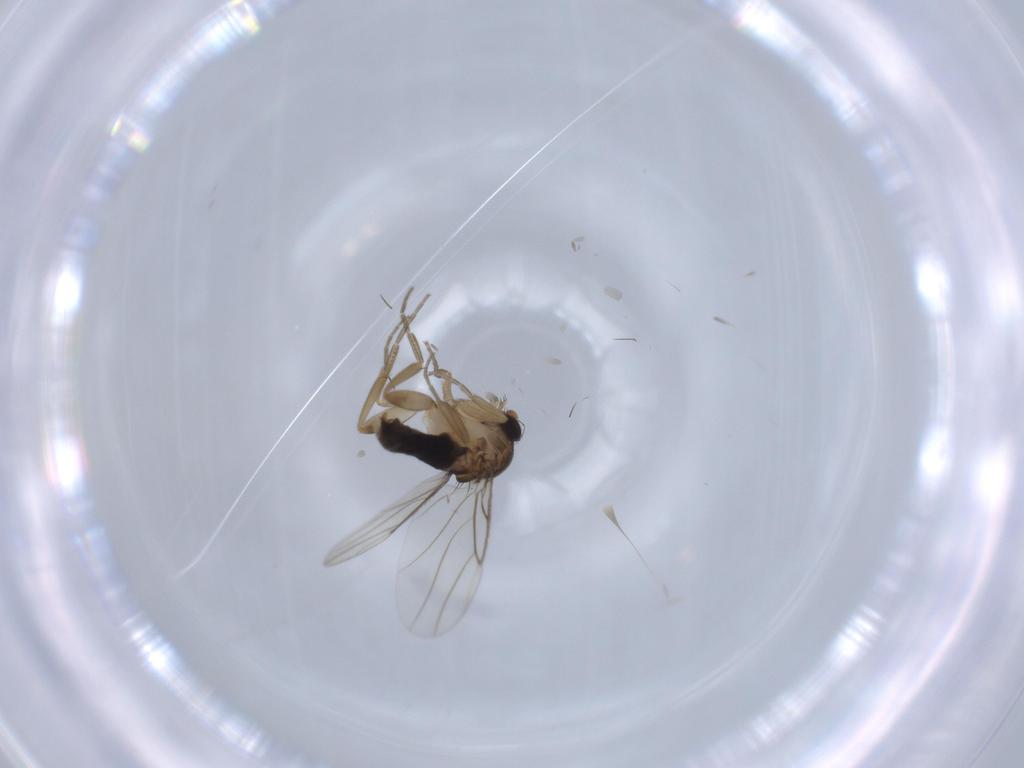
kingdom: Animalia
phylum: Arthropoda
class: Insecta
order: Diptera
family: Phoridae
